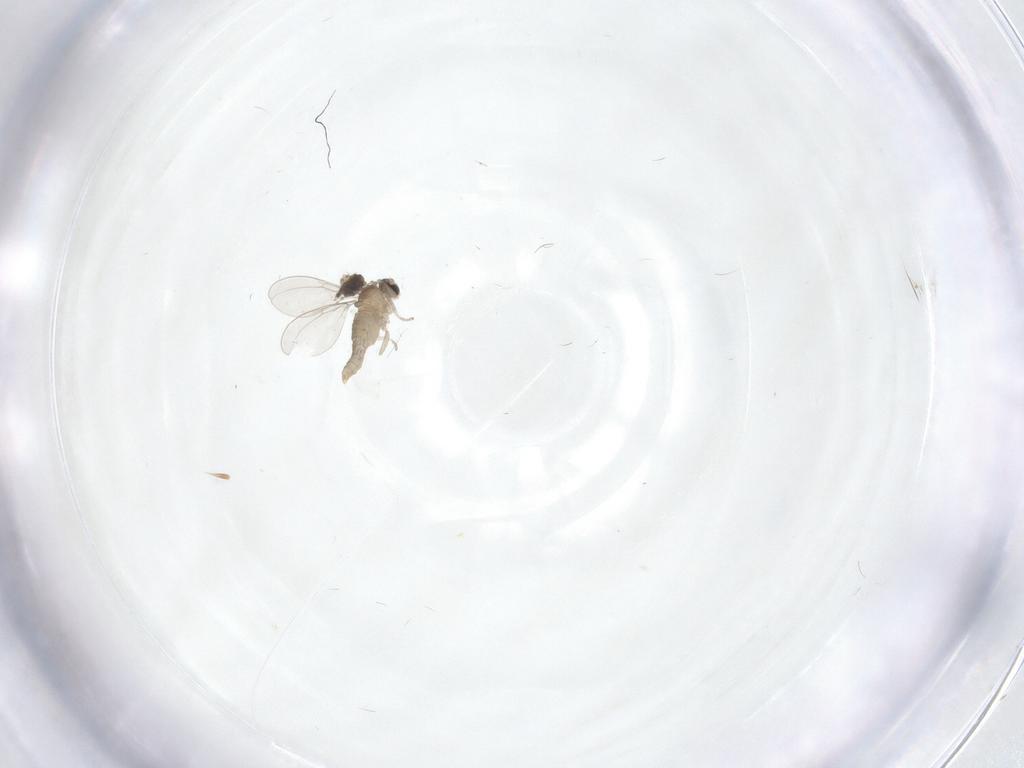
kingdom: Animalia
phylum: Arthropoda
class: Insecta
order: Diptera
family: Cecidomyiidae
